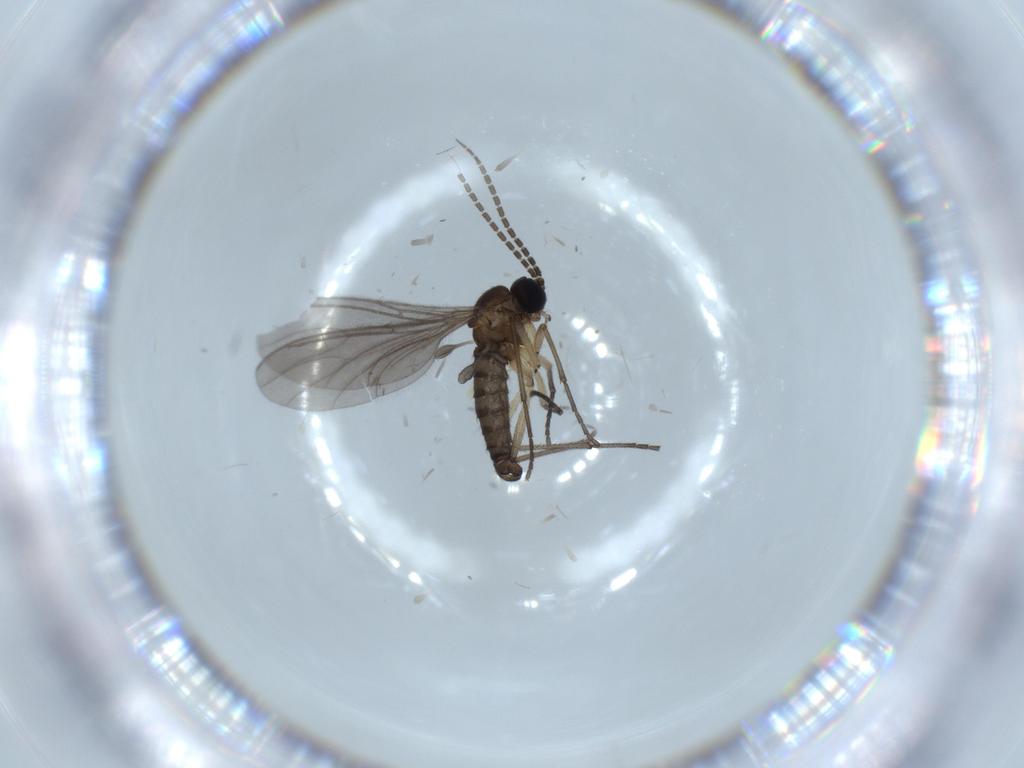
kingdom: Animalia
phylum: Arthropoda
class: Insecta
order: Diptera
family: Sciaridae
